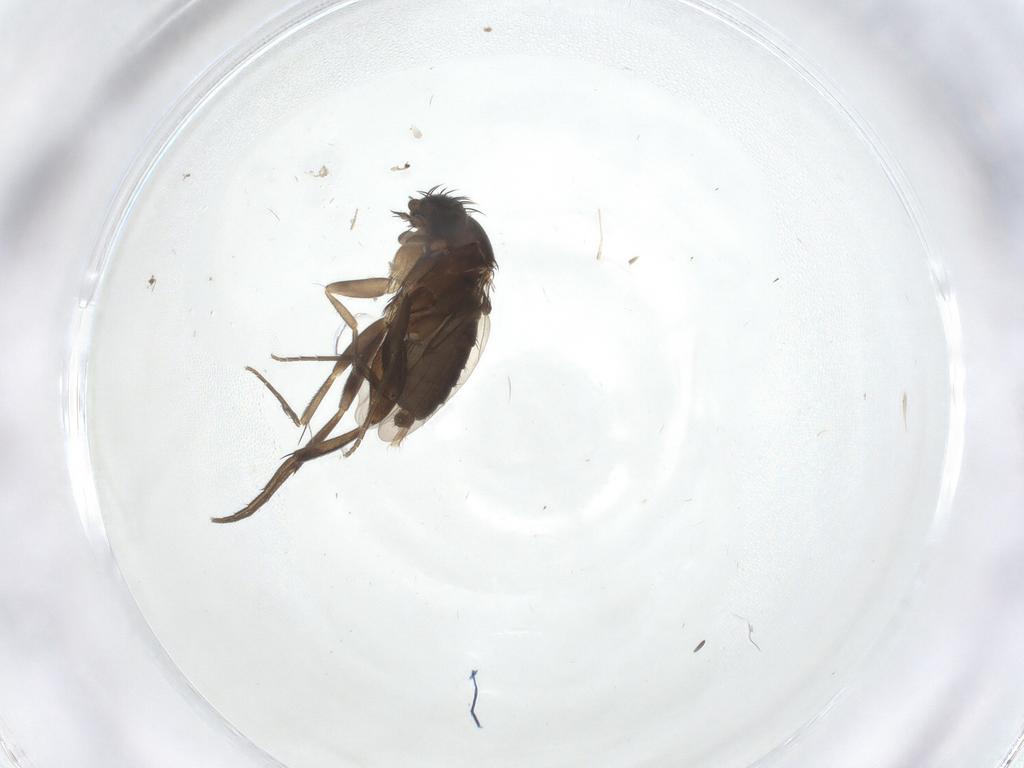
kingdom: Animalia
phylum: Arthropoda
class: Insecta
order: Diptera
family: Phoridae
